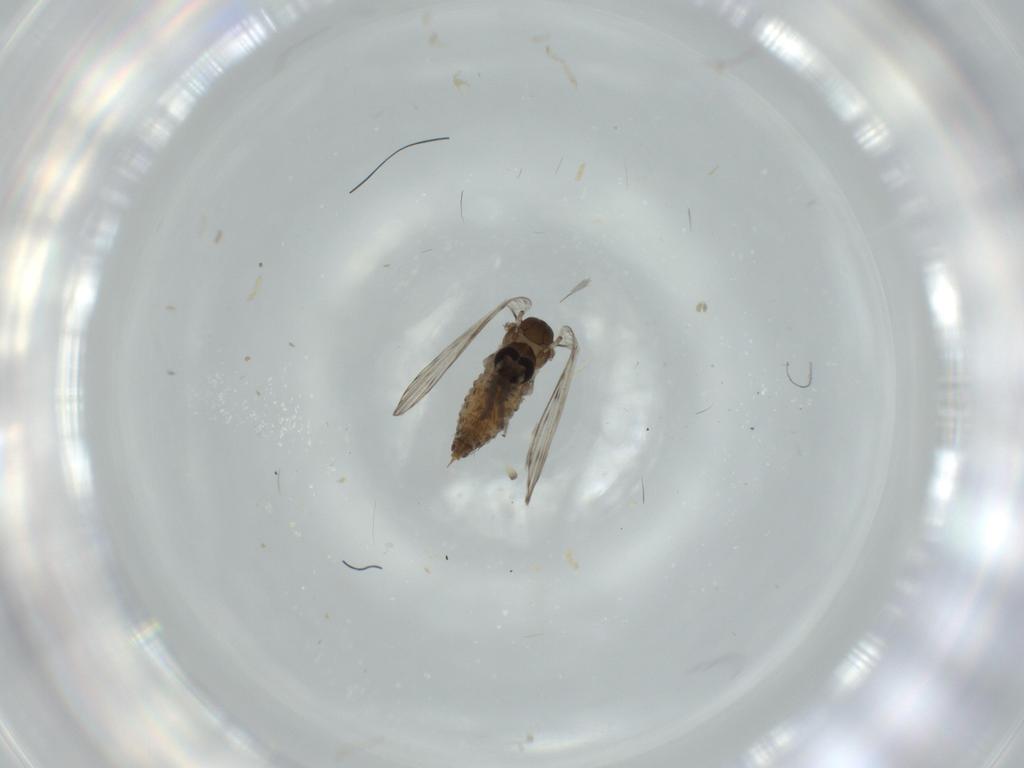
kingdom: Animalia
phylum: Arthropoda
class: Insecta
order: Diptera
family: Psychodidae
